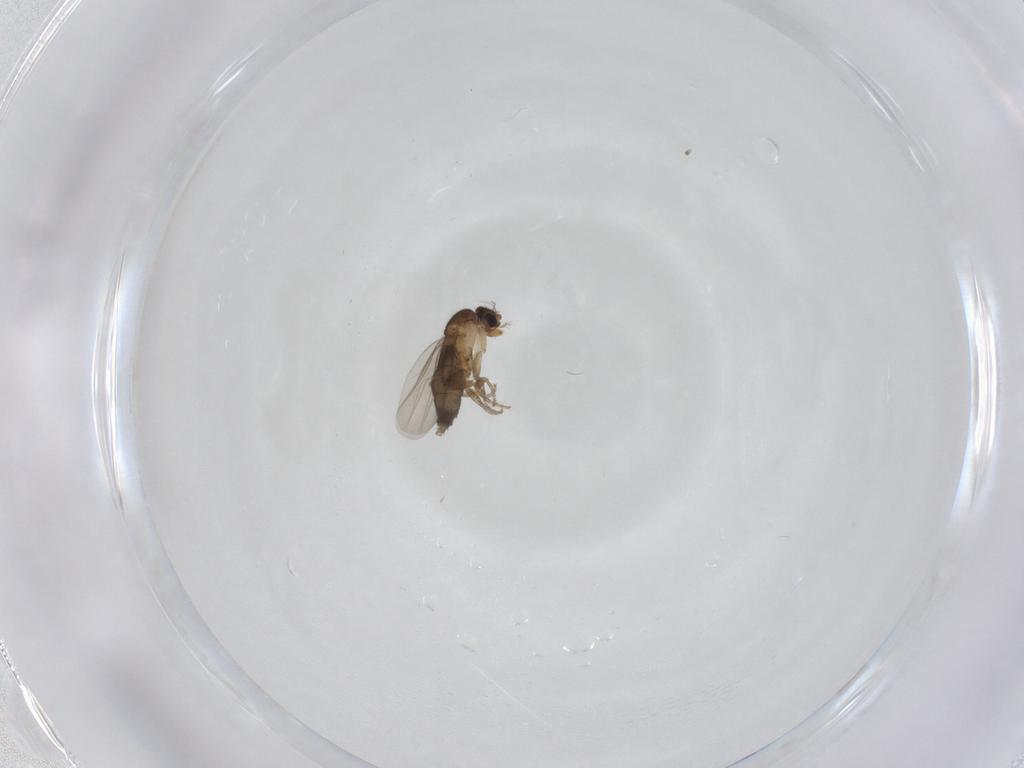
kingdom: Animalia
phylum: Arthropoda
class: Insecta
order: Diptera
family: Phoridae
